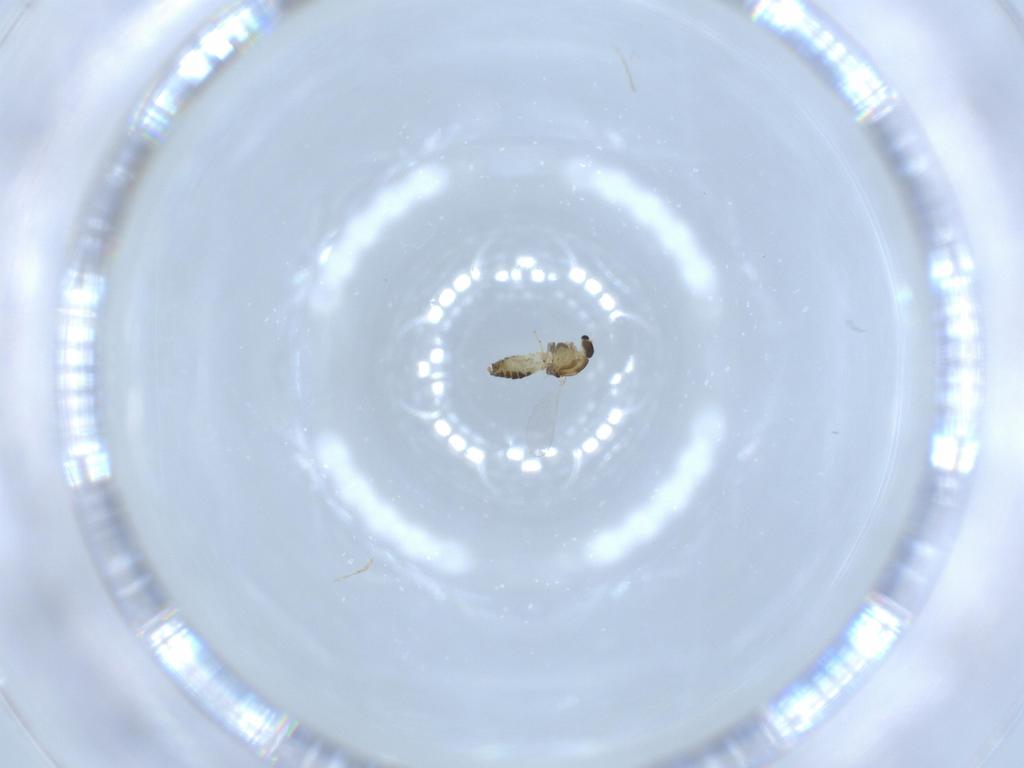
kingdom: Animalia
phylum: Arthropoda
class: Insecta
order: Diptera
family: Chironomidae
